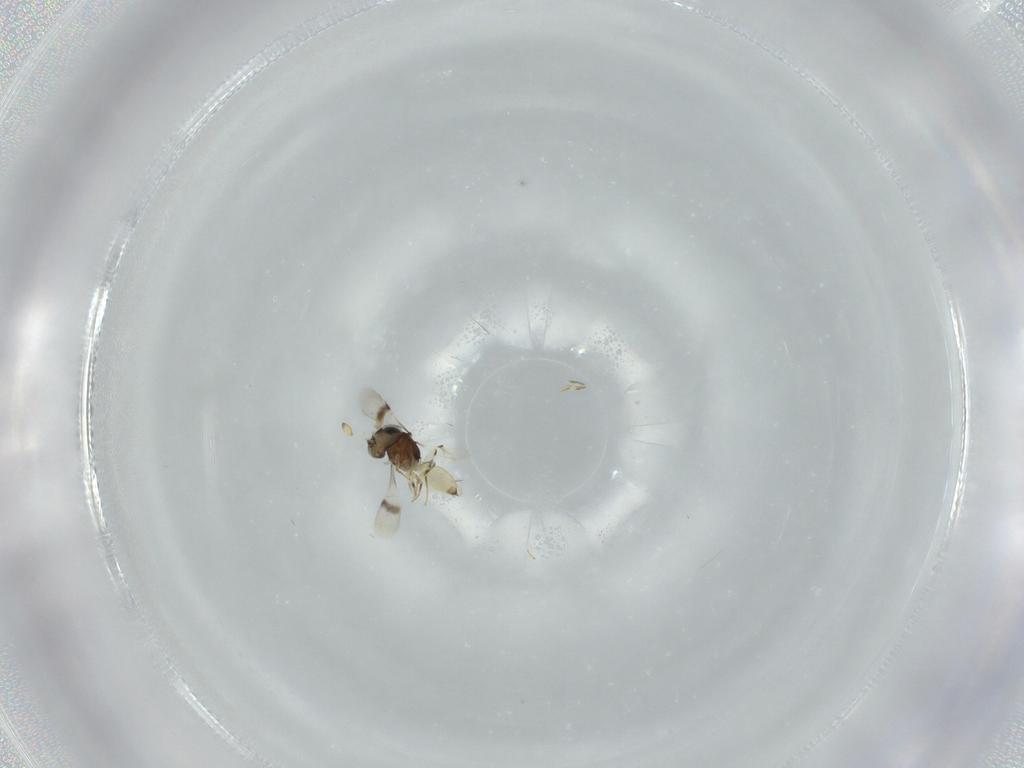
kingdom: Animalia
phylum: Arthropoda
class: Insecta
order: Hymenoptera
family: Scelionidae
